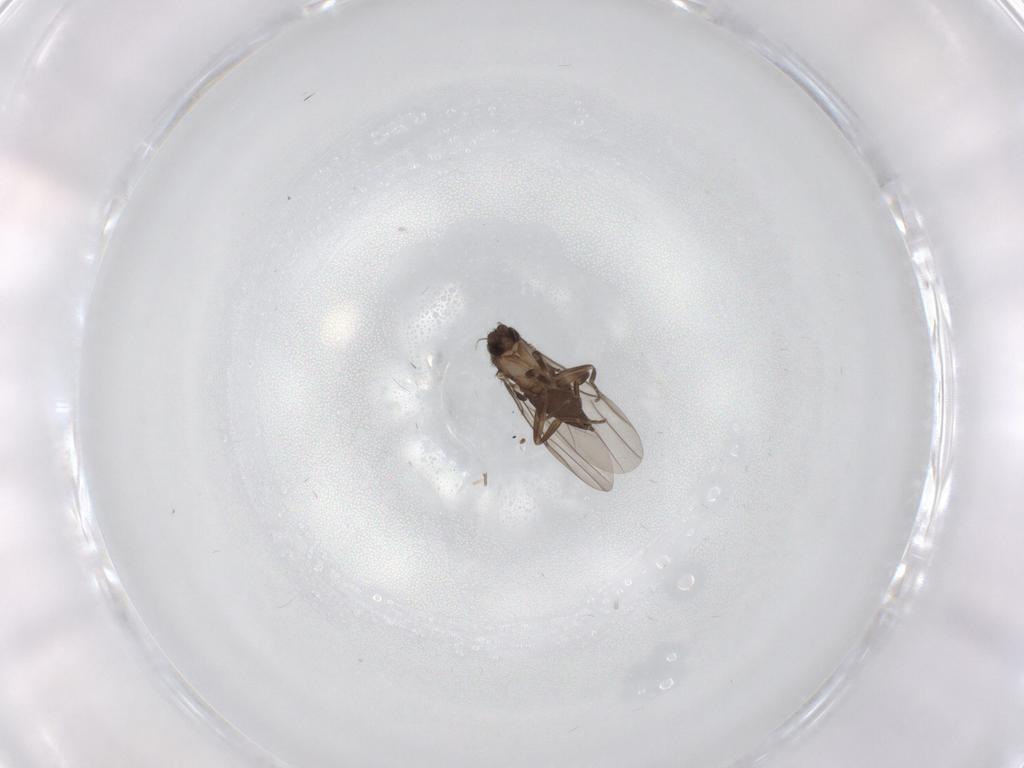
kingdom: Animalia
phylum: Arthropoda
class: Insecta
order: Diptera
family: Phoridae
